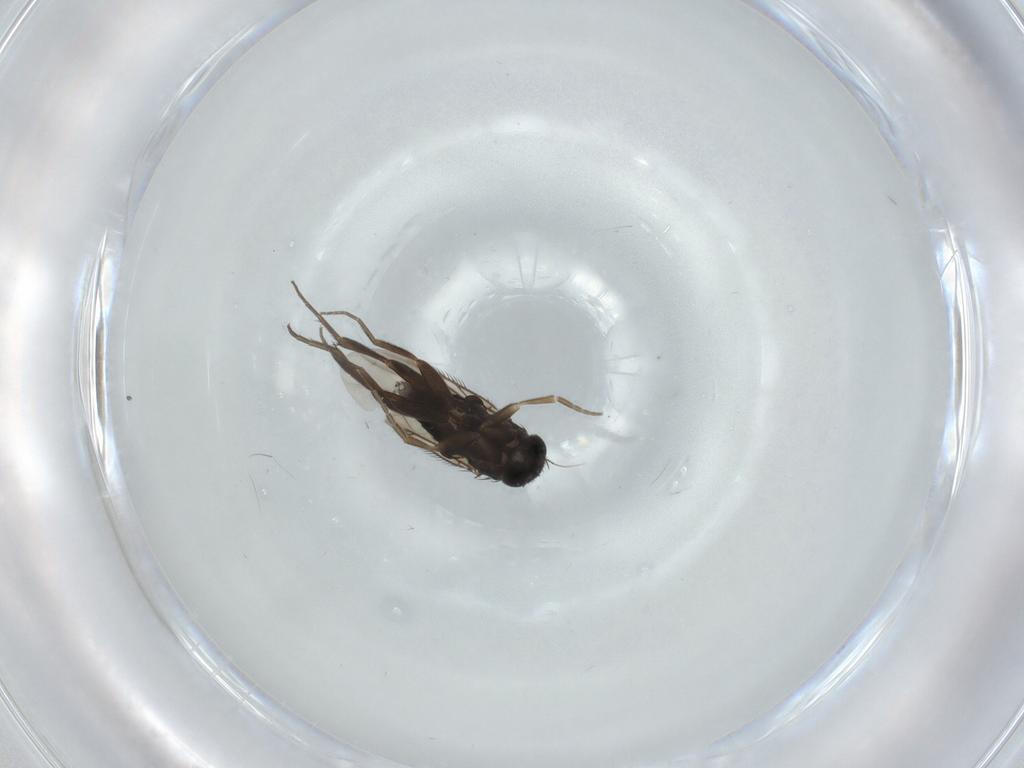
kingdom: Animalia
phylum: Arthropoda
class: Insecta
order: Diptera
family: Cecidomyiidae
